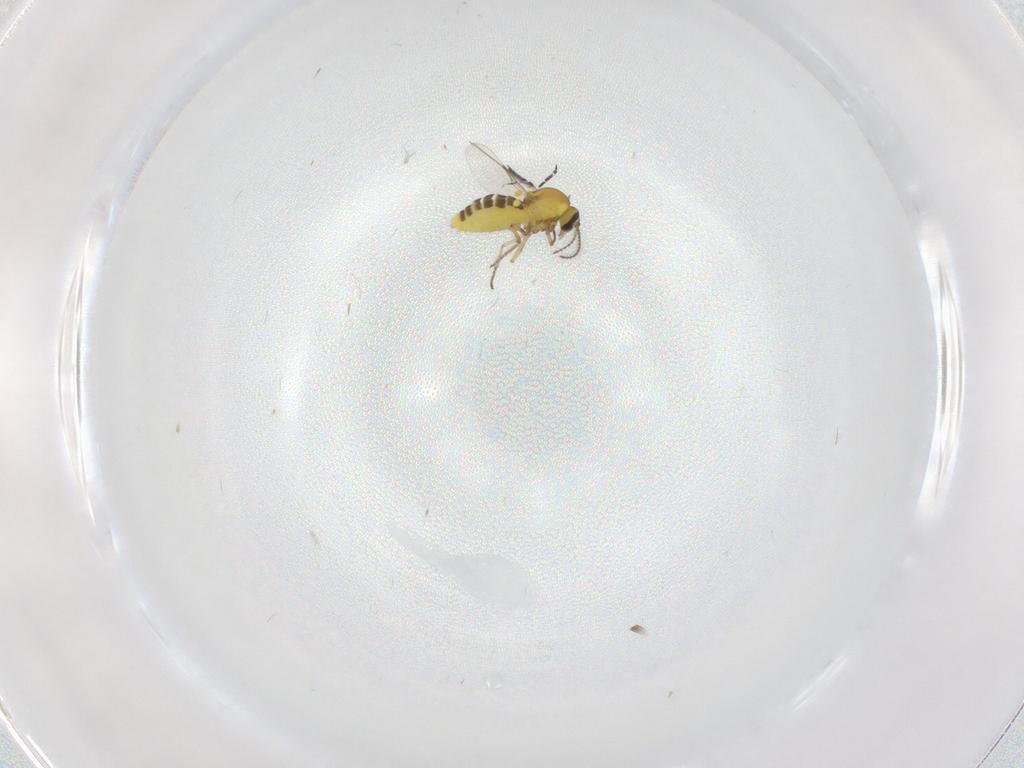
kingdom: Animalia
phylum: Arthropoda
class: Insecta
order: Diptera
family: Ceratopogonidae
